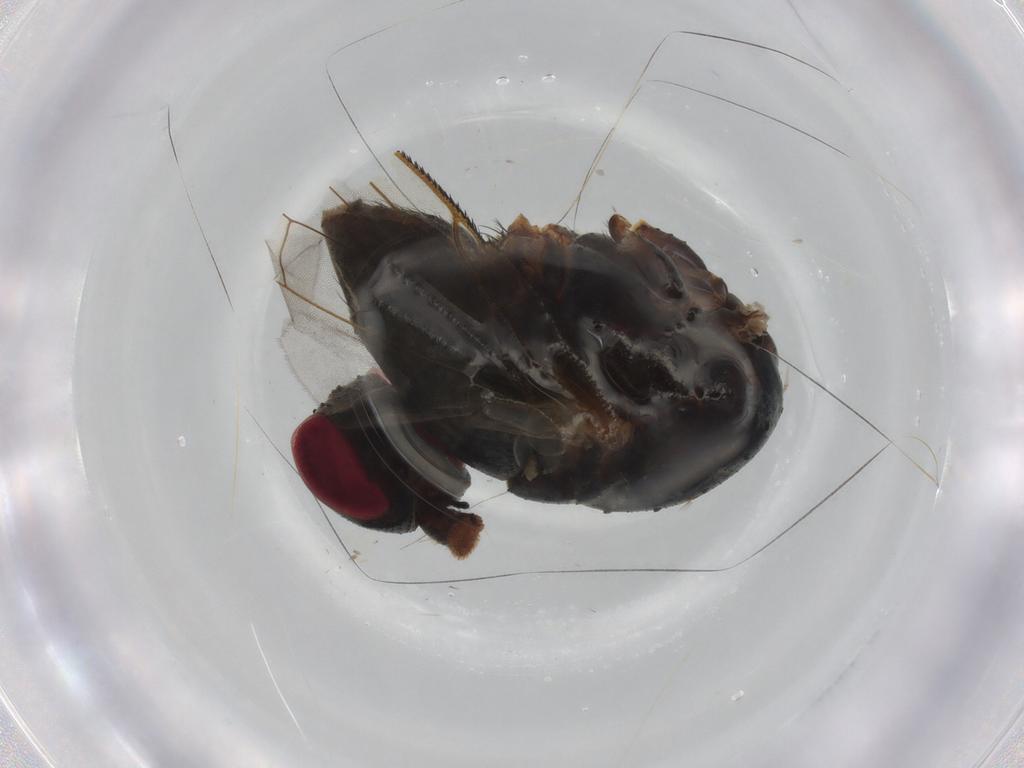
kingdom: Animalia
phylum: Arthropoda
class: Insecta
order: Diptera
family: Muscidae
